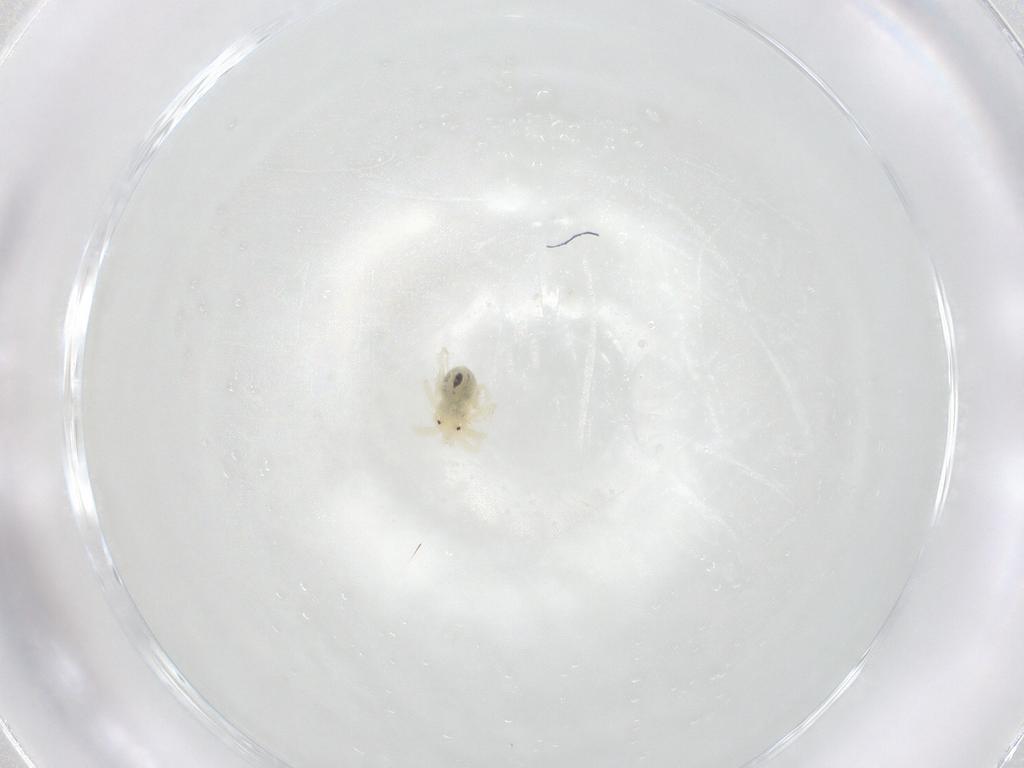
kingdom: Animalia
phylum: Arthropoda
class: Arachnida
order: Trombidiformes
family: Anystidae
